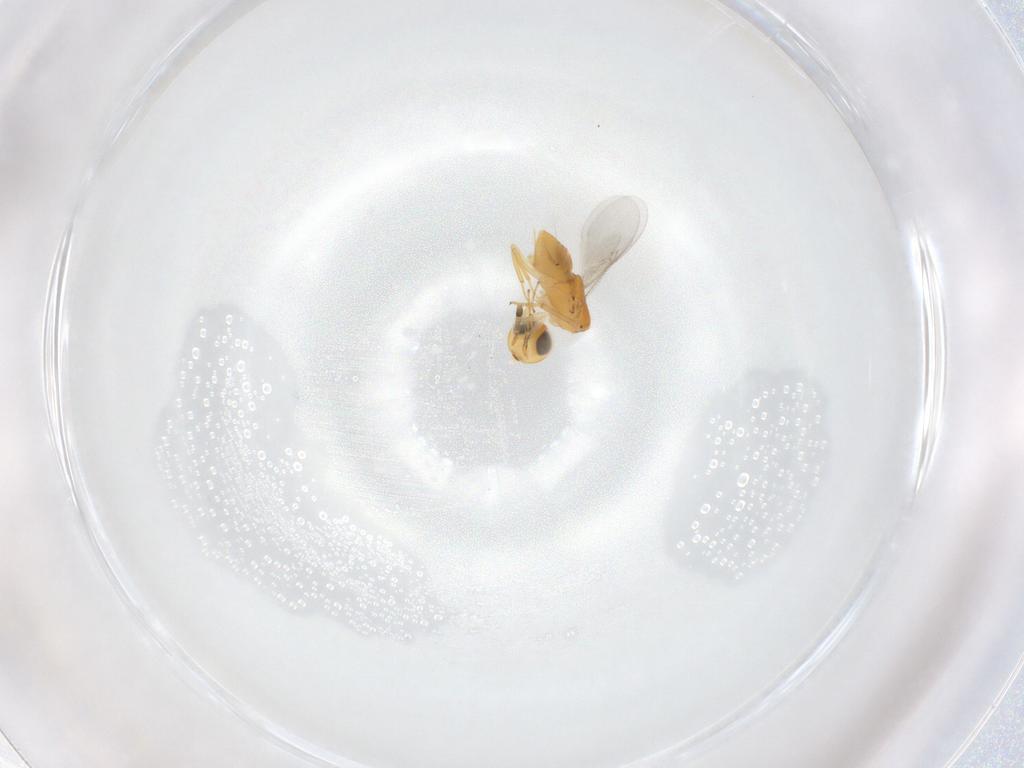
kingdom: Animalia
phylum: Arthropoda
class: Insecta
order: Hymenoptera
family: Encyrtidae
